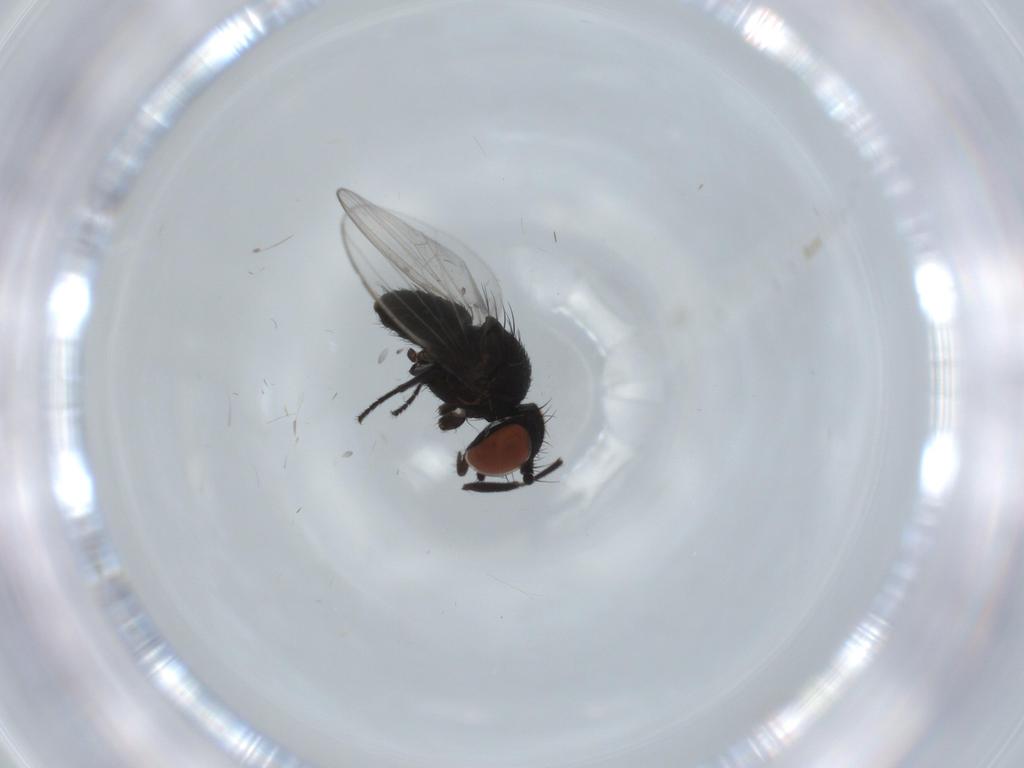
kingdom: Animalia
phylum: Arthropoda
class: Insecta
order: Diptera
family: Milichiidae
